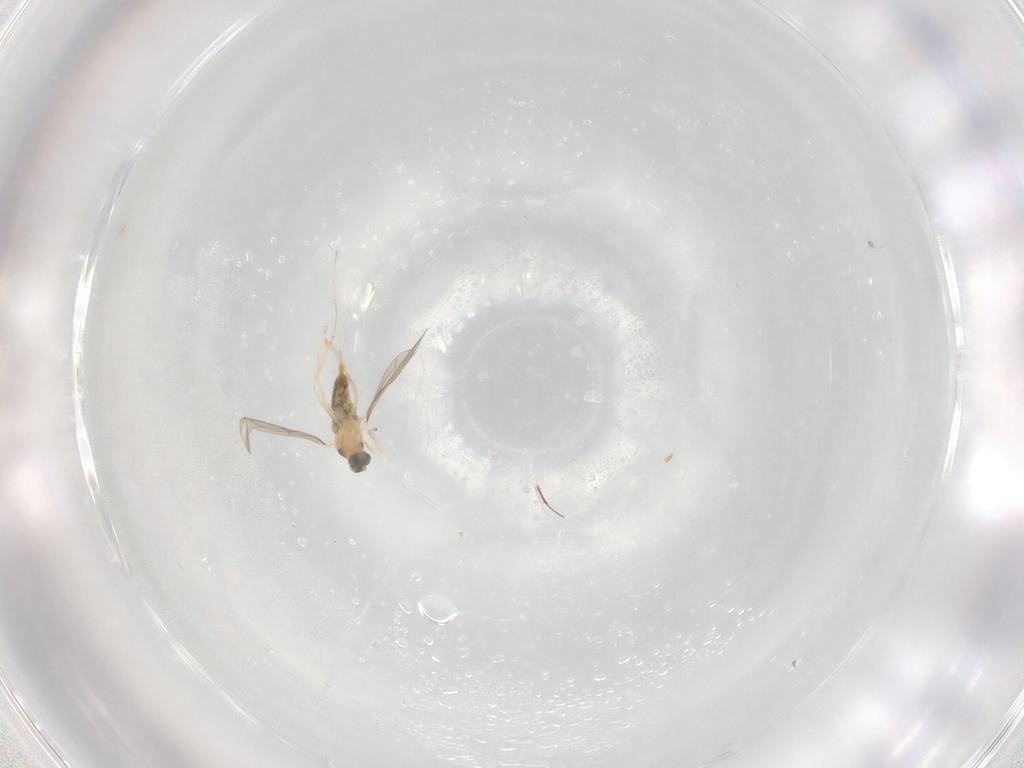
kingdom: Animalia
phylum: Arthropoda
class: Insecta
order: Diptera
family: Cecidomyiidae
